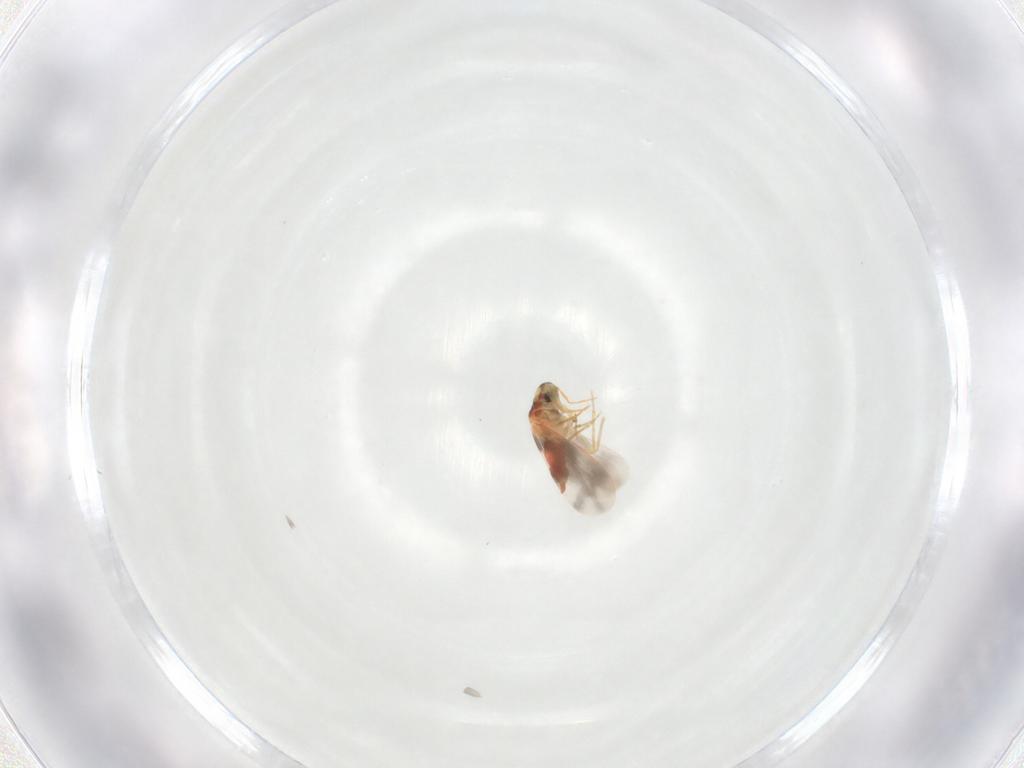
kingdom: Animalia
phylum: Arthropoda
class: Insecta
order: Hemiptera
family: Aleyrodidae
